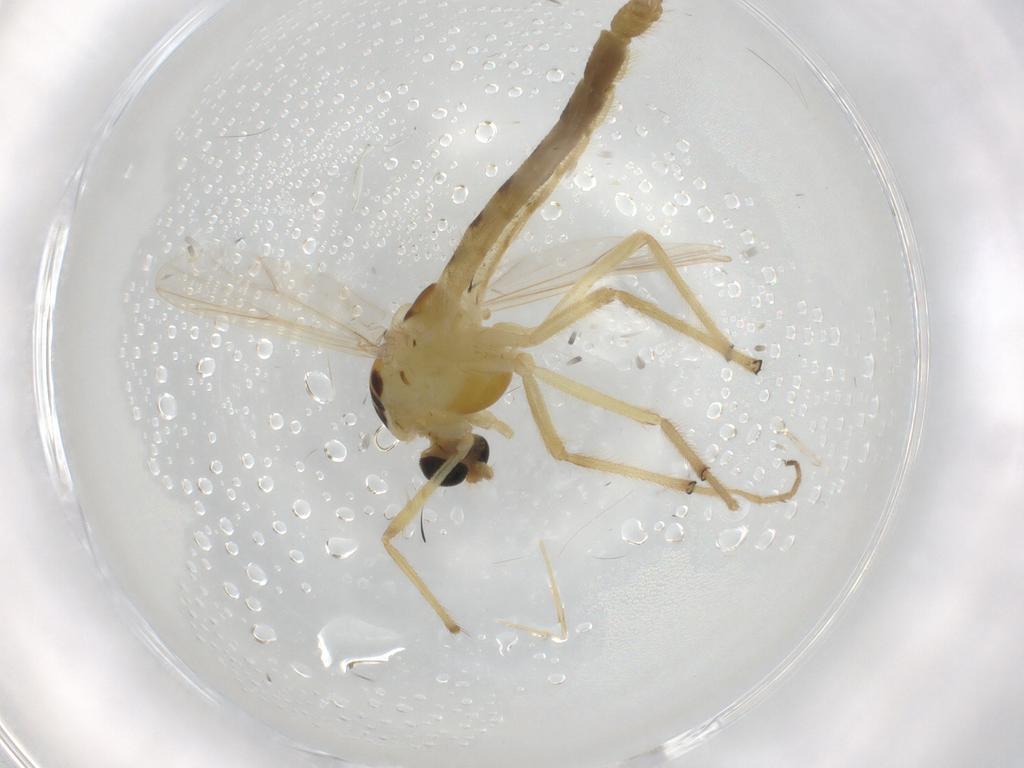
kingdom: Animalia
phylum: Arthropoda
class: Insecta
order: Diptera
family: Chironomidae
